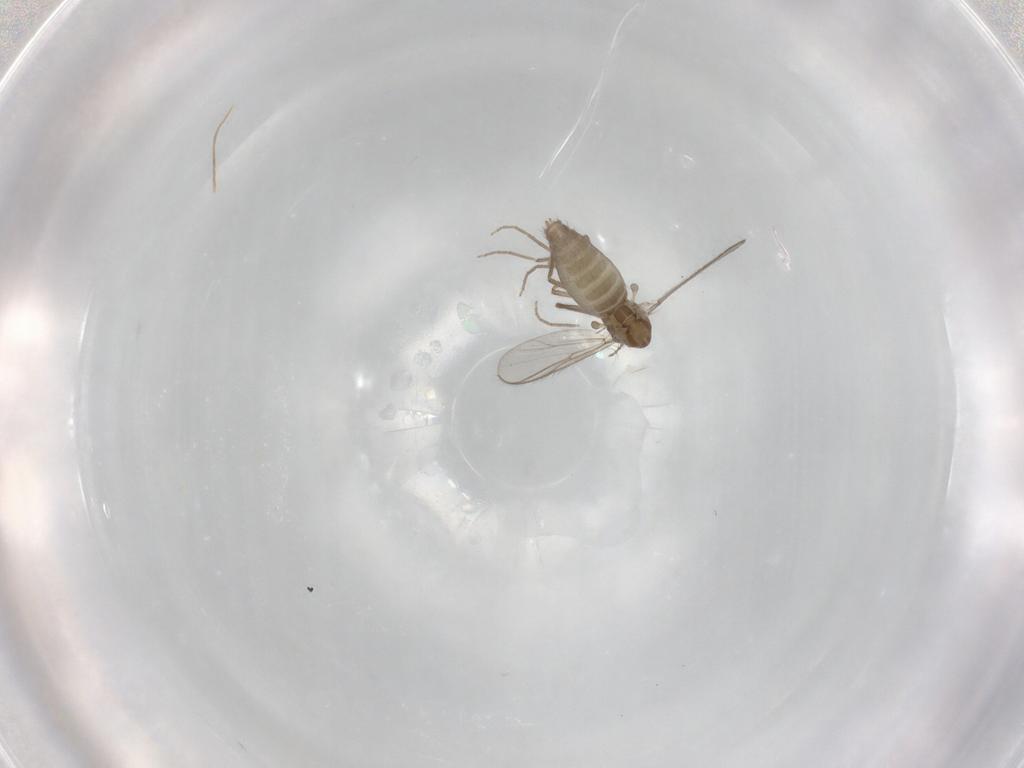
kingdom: Animalia
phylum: Arthropoda
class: Insecta
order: Diptera
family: Chironomidae
